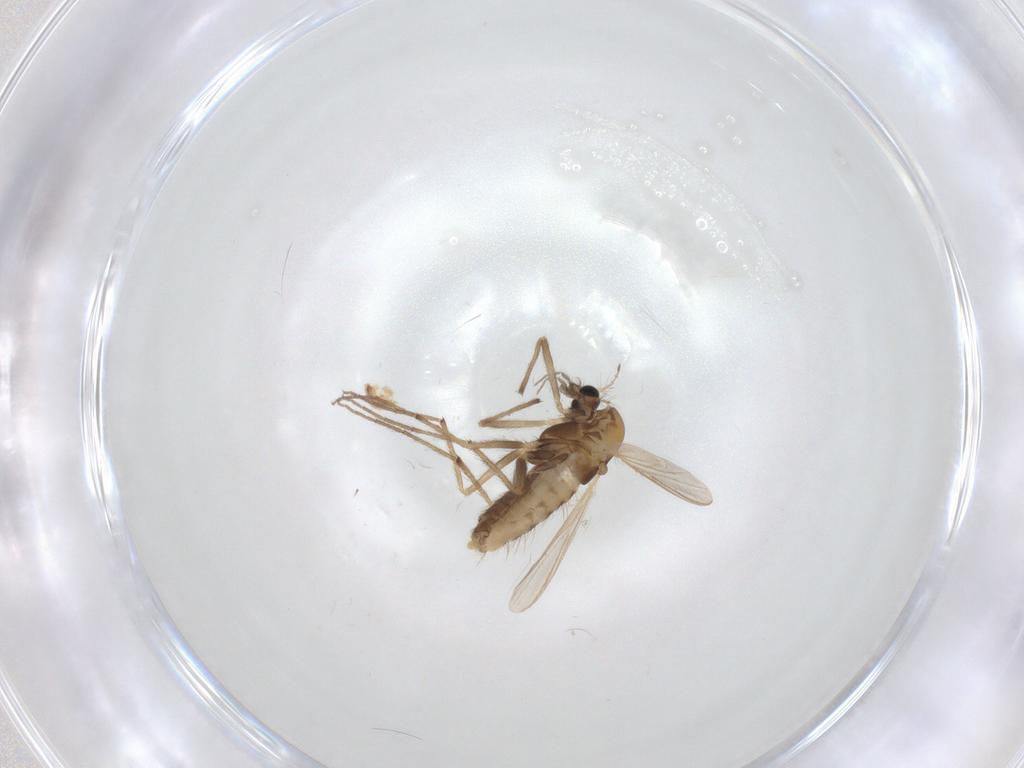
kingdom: Animalia
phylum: Arthropoda
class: Insecta
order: Diptera
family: Chironomidae
